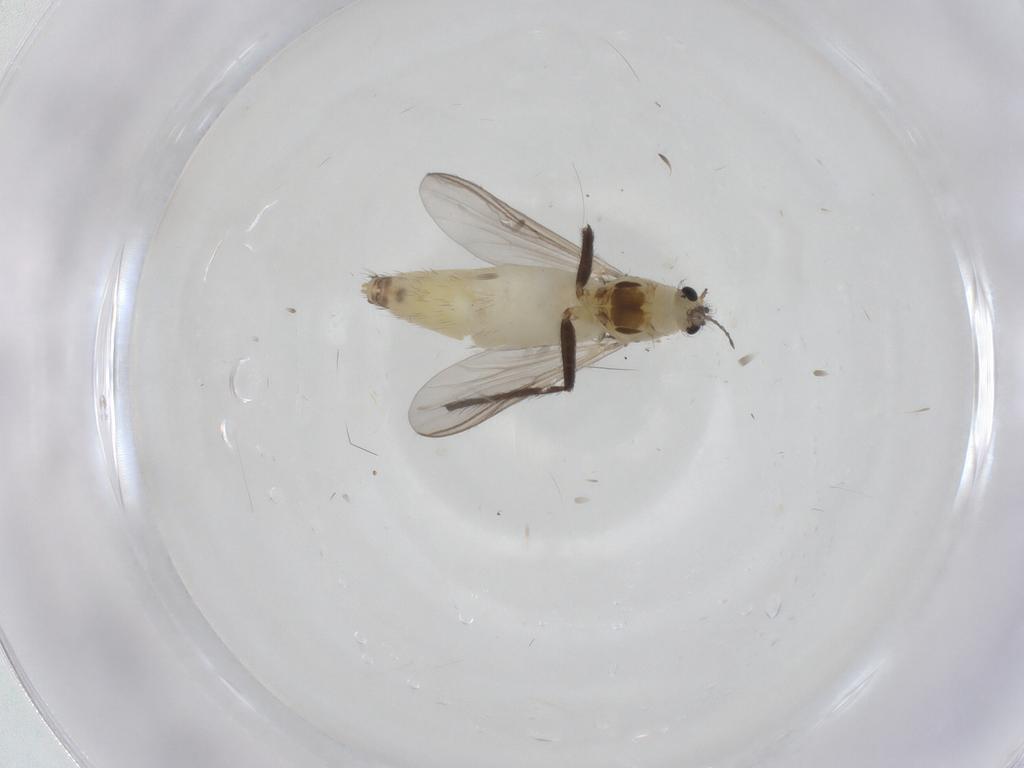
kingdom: Animalia
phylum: Arthropoda
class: Insecta
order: Diptera
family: Chironomidae
